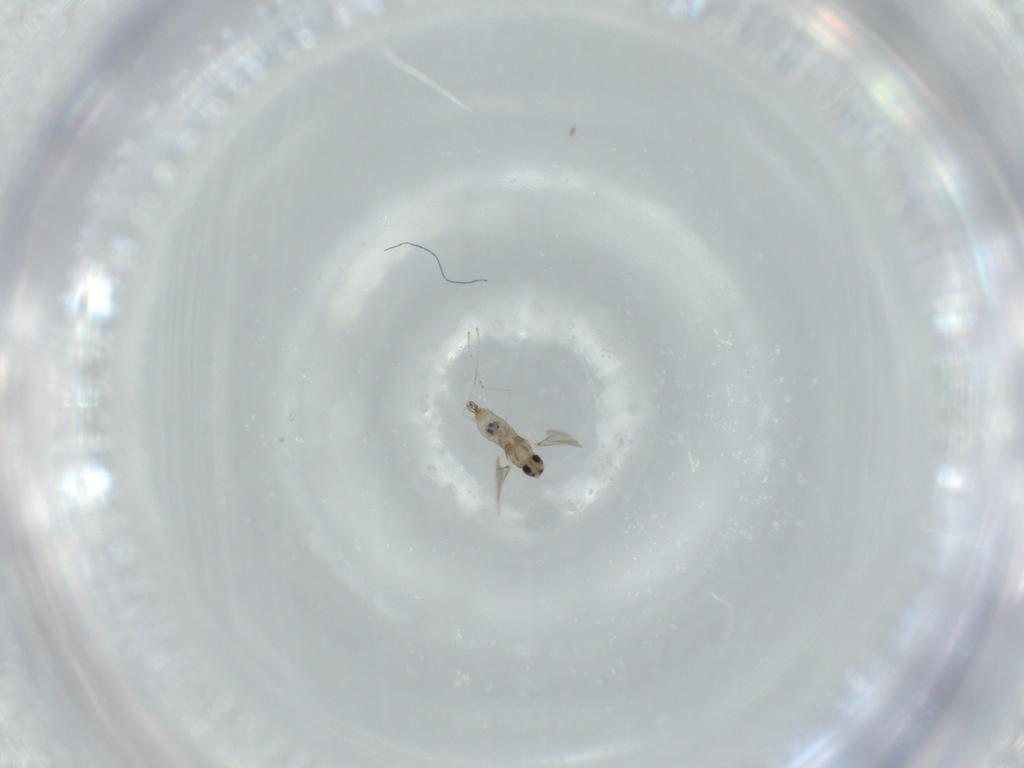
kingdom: Animalia
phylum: Arthropoda
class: Insecta
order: Diptera
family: Cecidomyiidae
